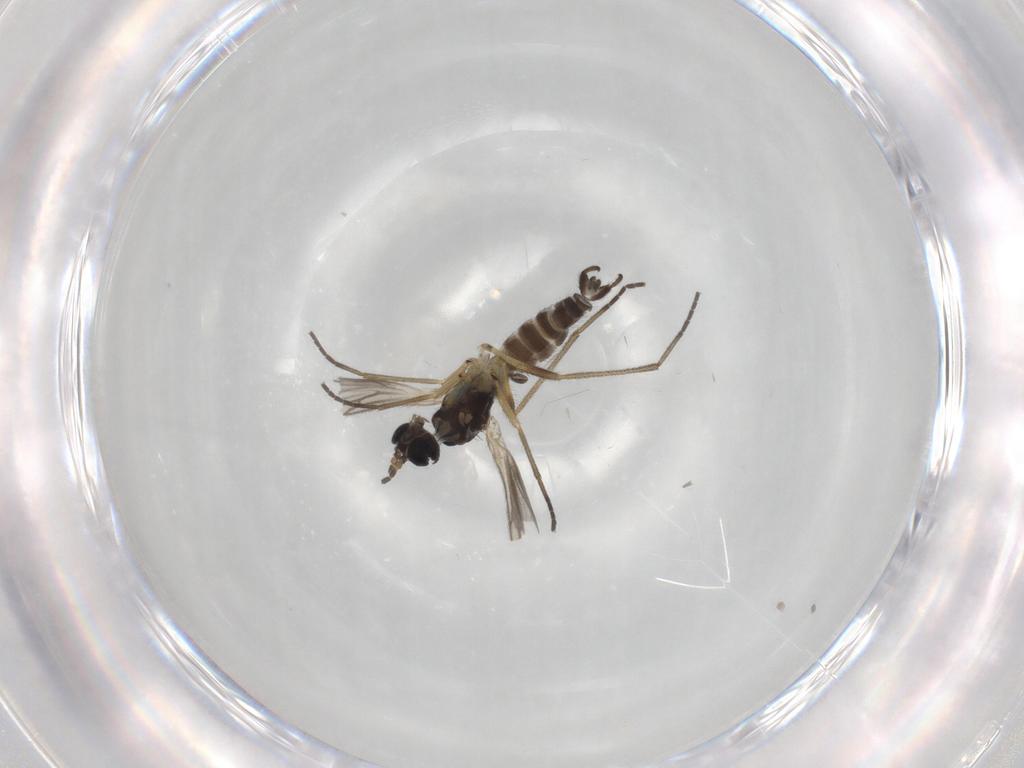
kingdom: Animalia
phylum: Arthropoda
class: Insecta
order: Diptera
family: Sciaridae
